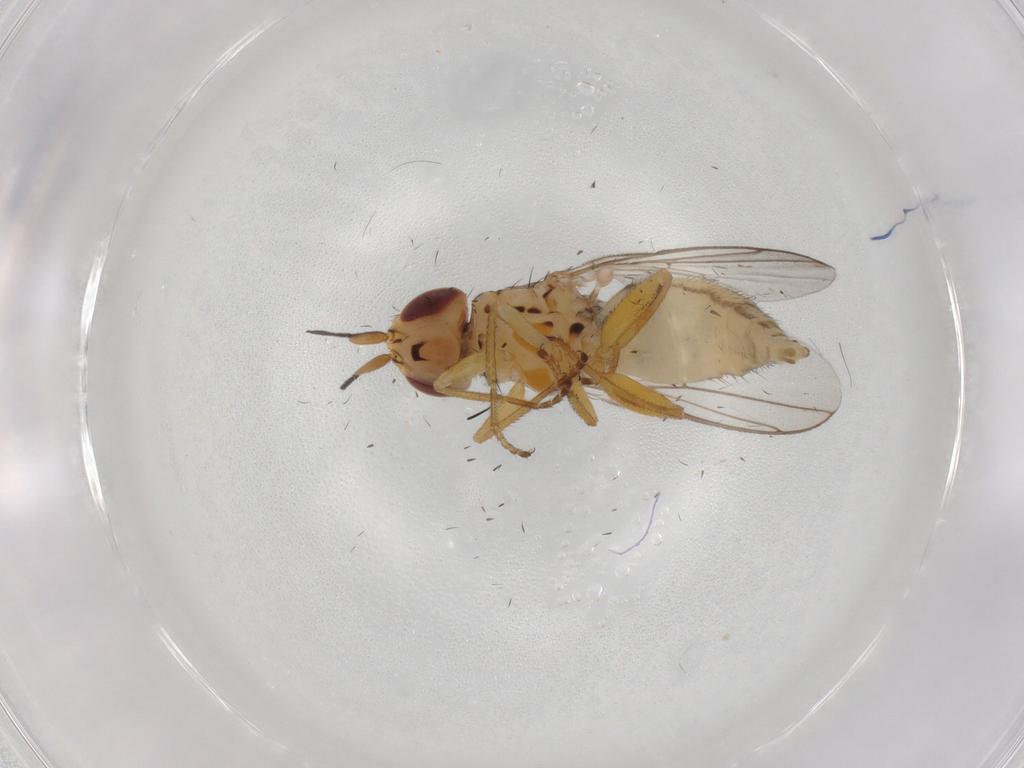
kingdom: Animalia
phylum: Arthropoda
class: Insecta
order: Diptera
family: Chloropidae
